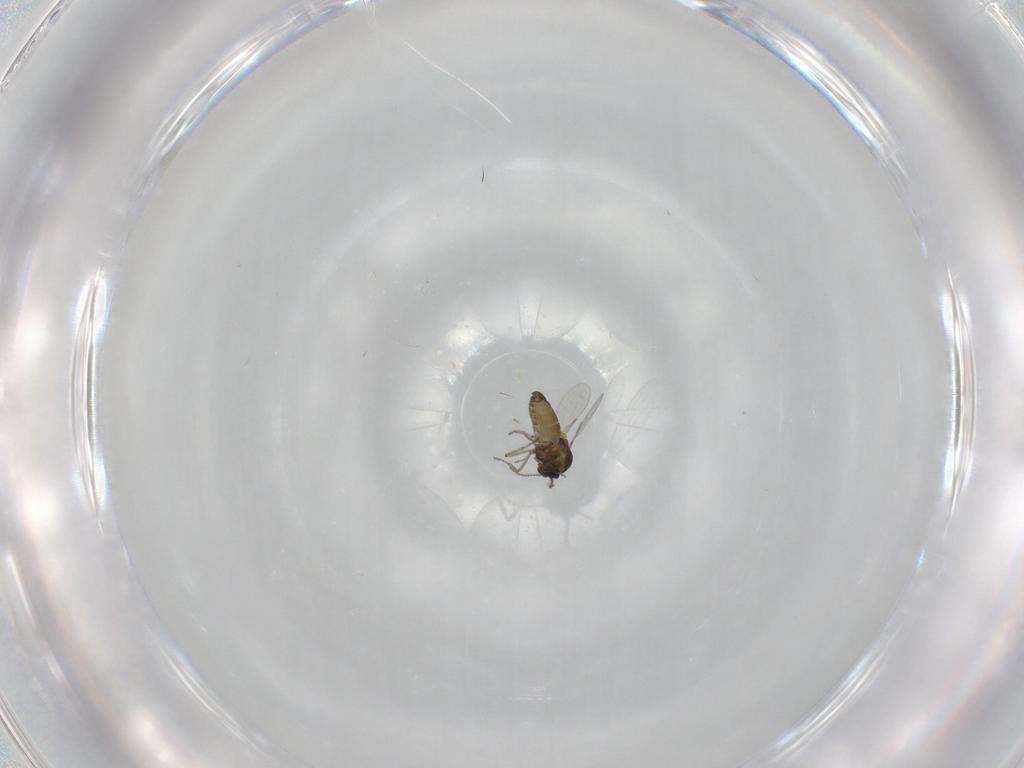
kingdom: Animalia
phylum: Arthropoda
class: Insecta
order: Diptera
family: Ceratopogonidae
